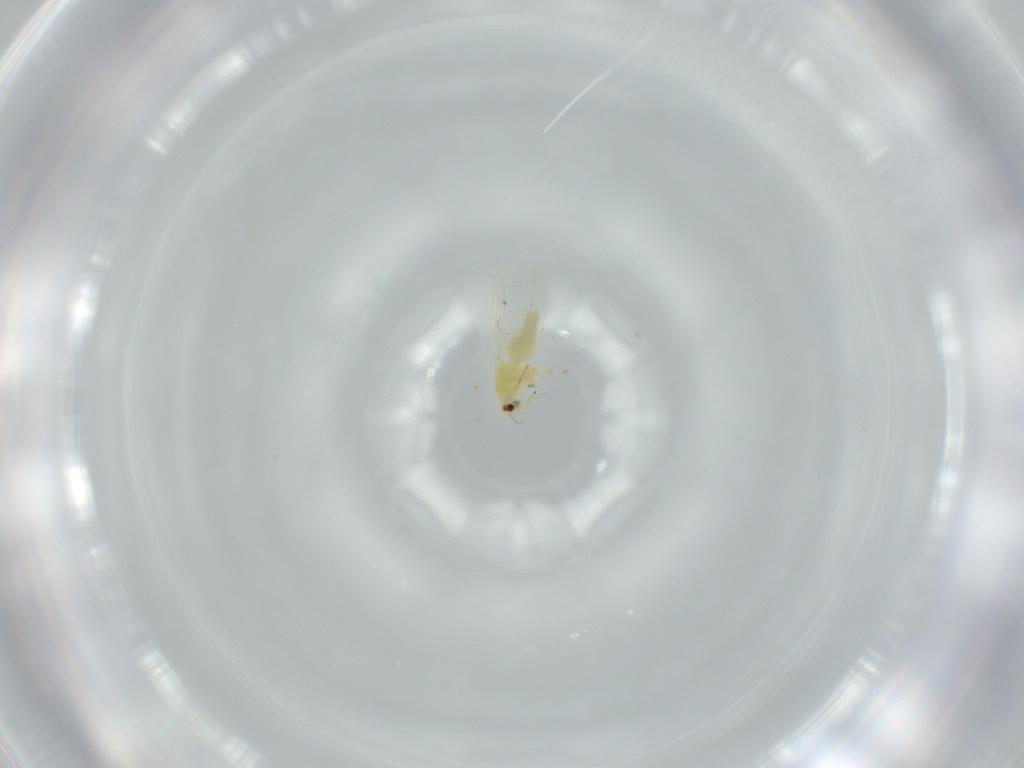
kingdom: Animalia
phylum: Arthropoda
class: Insecta
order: Hemiptera
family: Aleyrodidae
